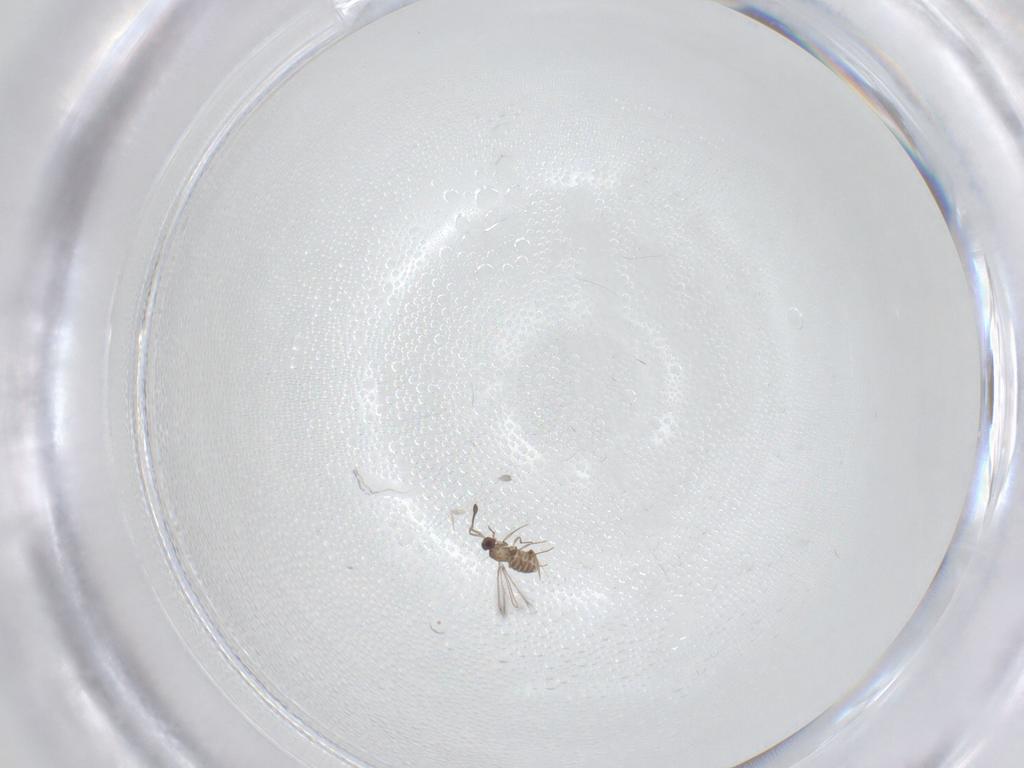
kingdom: Animalia
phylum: Arthropoda
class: Insecta
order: Hymenoptera
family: Mymaridae
